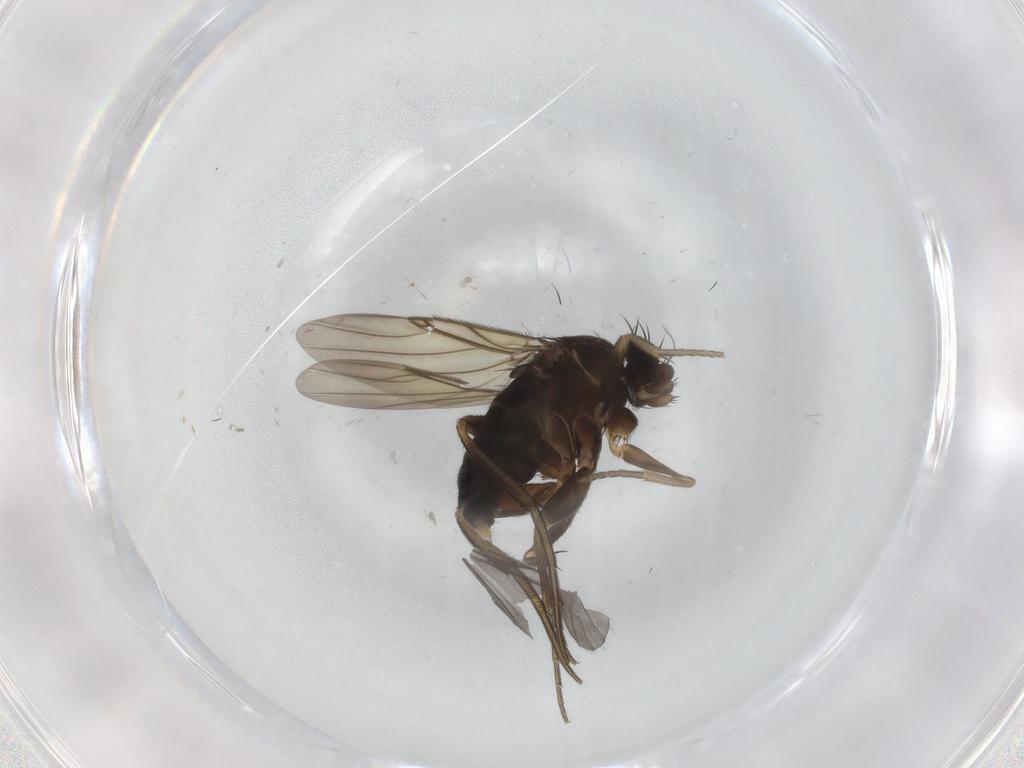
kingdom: Animalia
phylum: Arthropoda
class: Insecta
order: Diptera
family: Phoridae
